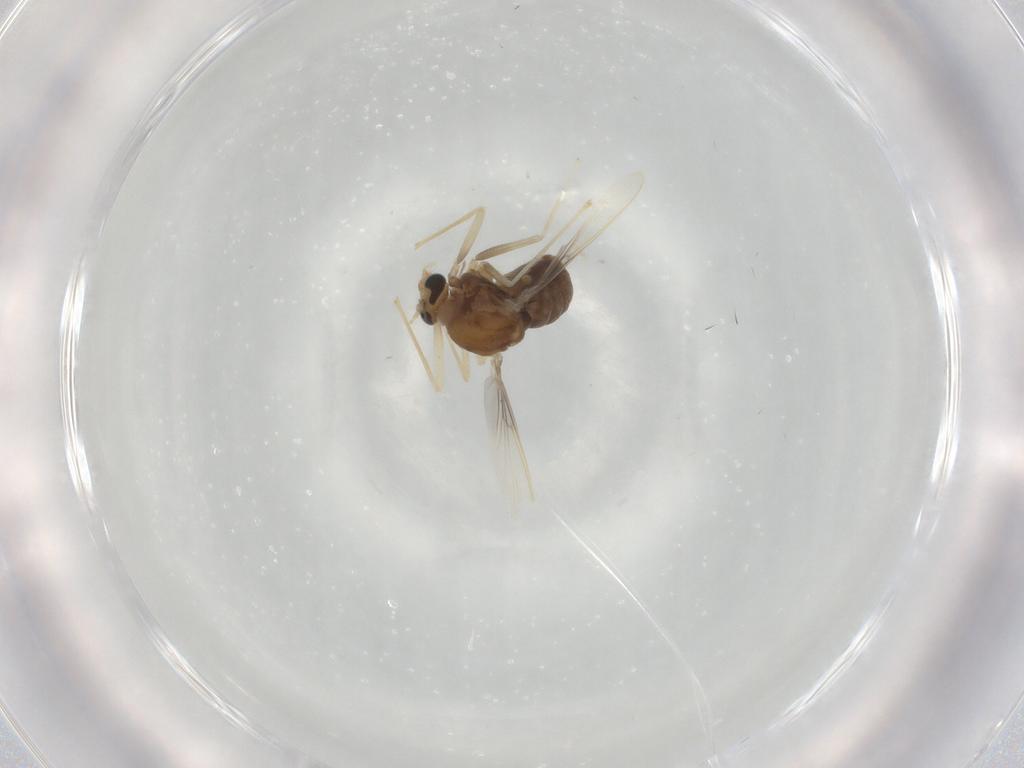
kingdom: Animalia
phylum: Arthropoda
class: Insecta
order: Diptera
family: Chironomidae
